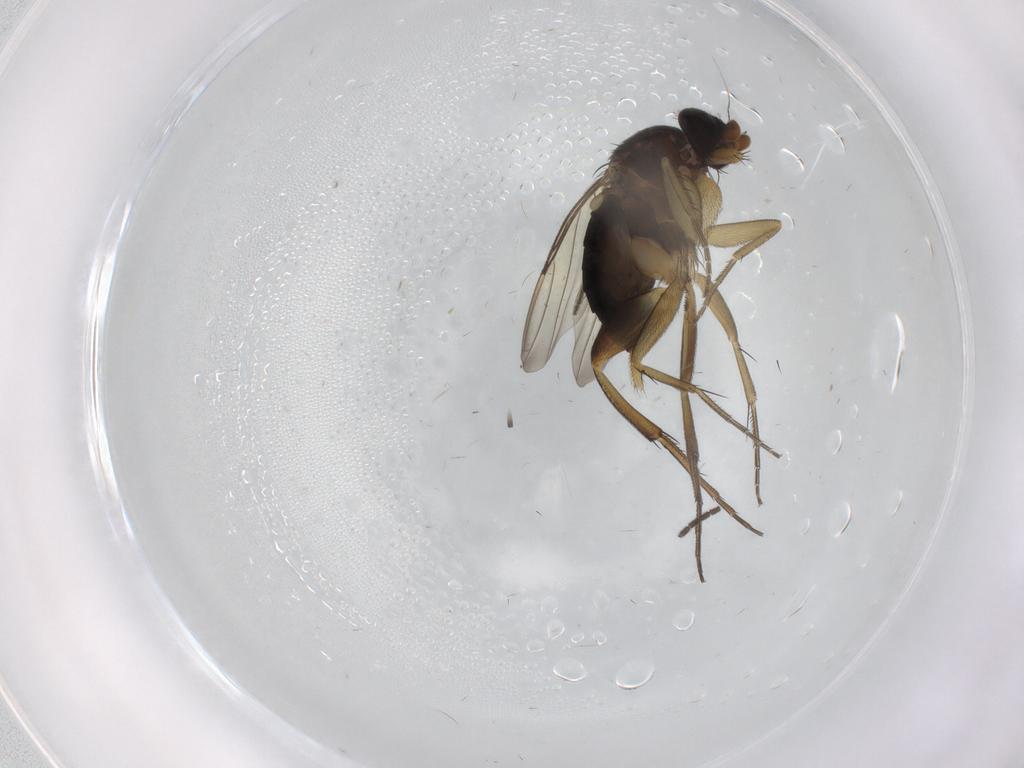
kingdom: Animalia
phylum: Arthropoda
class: Insecta
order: Diptera
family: Sciaridae
